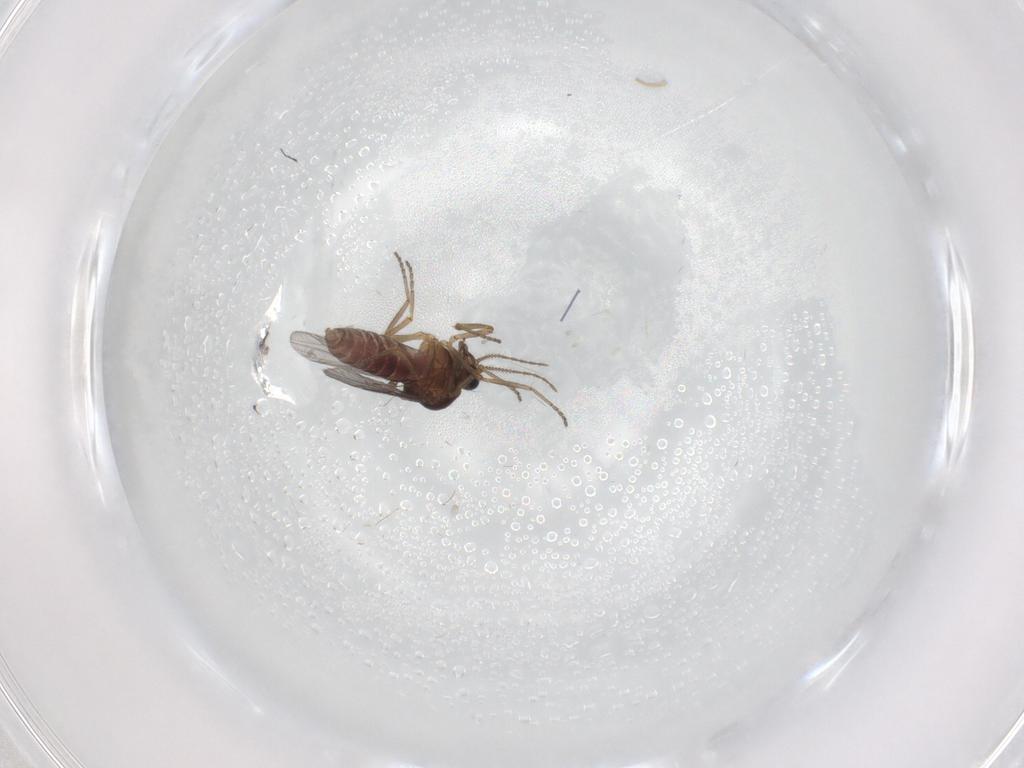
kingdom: Animalia
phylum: Arthropoda
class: Insecta
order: Diptera
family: Ceratopogonidae
